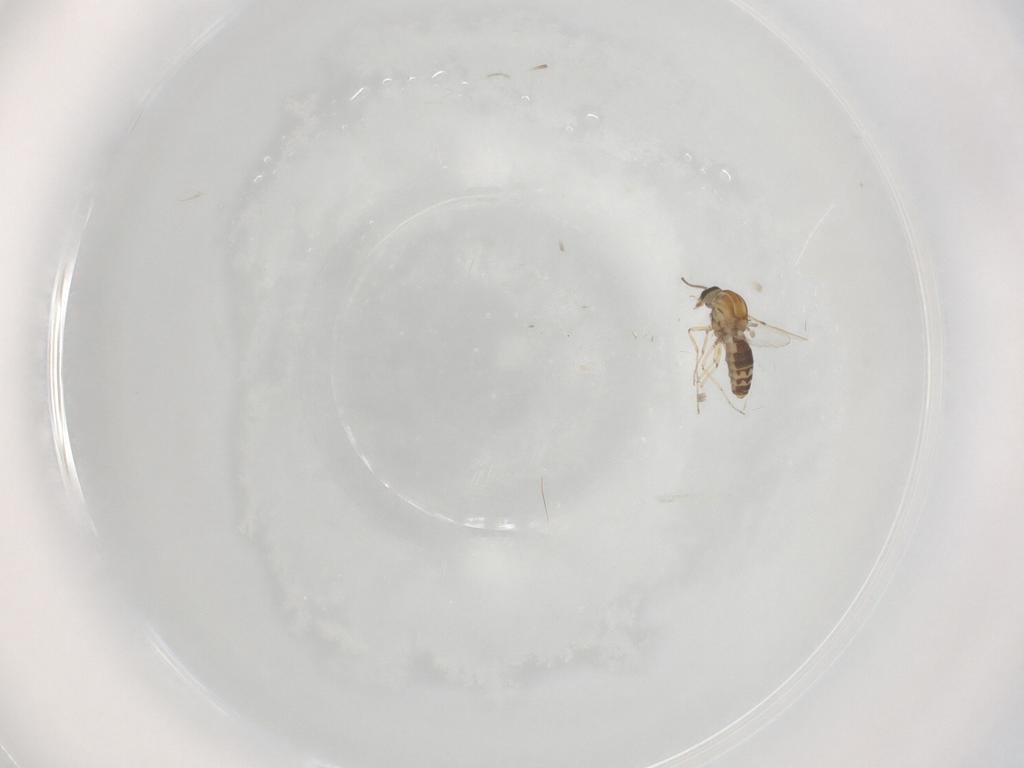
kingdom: Animalia
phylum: Arthropoda
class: Insecta
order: Diptera
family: Ceratopogonidae
